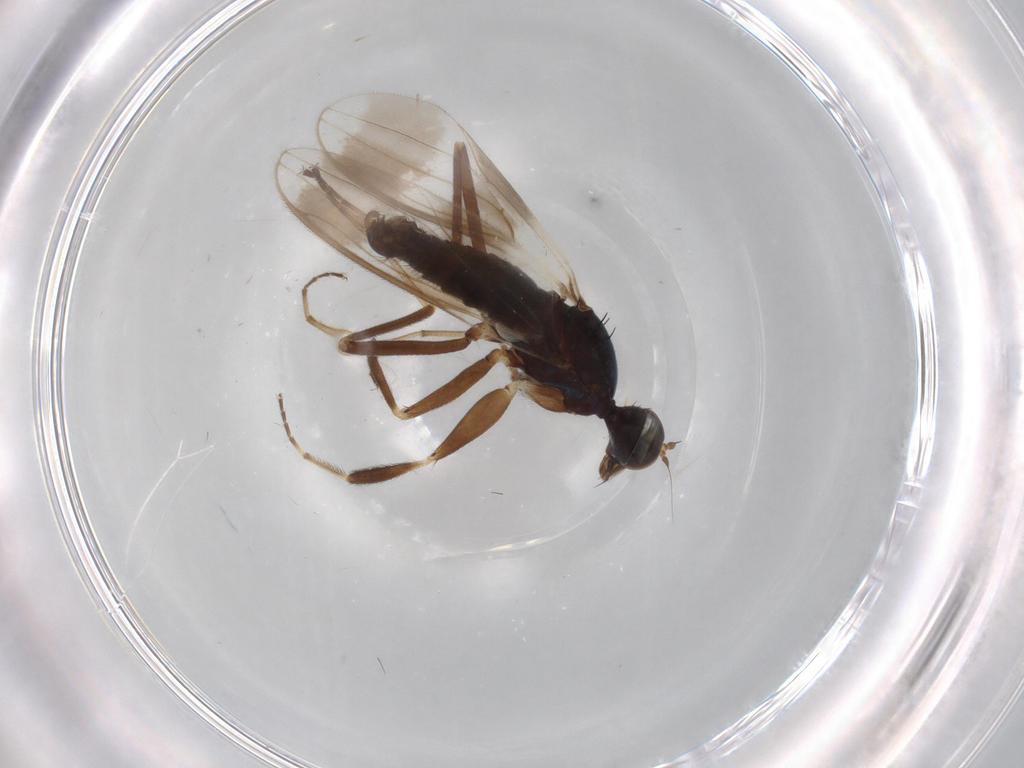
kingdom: Animalia
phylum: Arthropoda
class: Insecta
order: Diptera
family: Hybotidae
